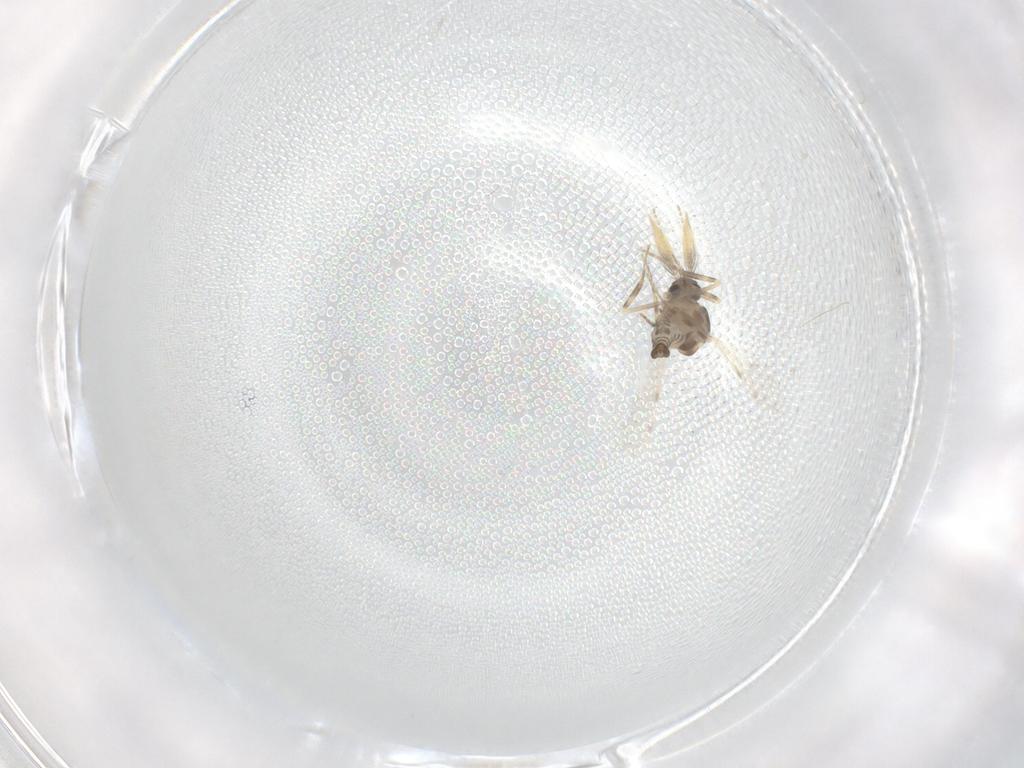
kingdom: Animalia
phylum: Arthropoda
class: Insecta
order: Diptera
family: Ceratopogonidae
